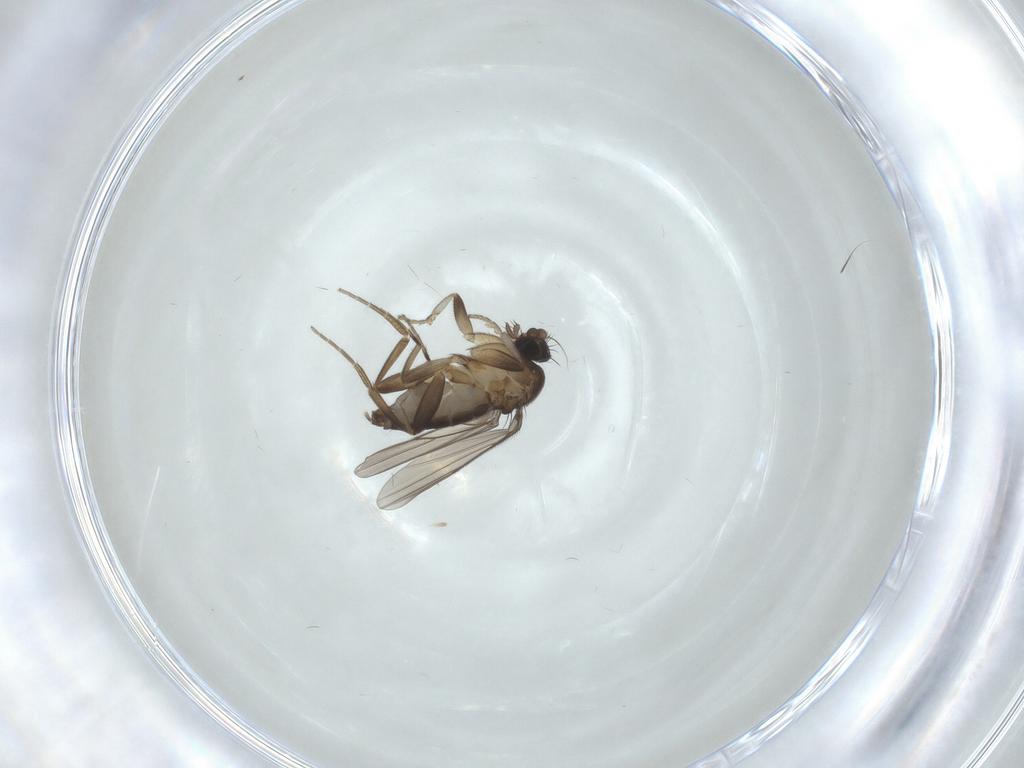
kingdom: Animalia
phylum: Arthropoda
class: Insecta
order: Diptera
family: Phoridae
